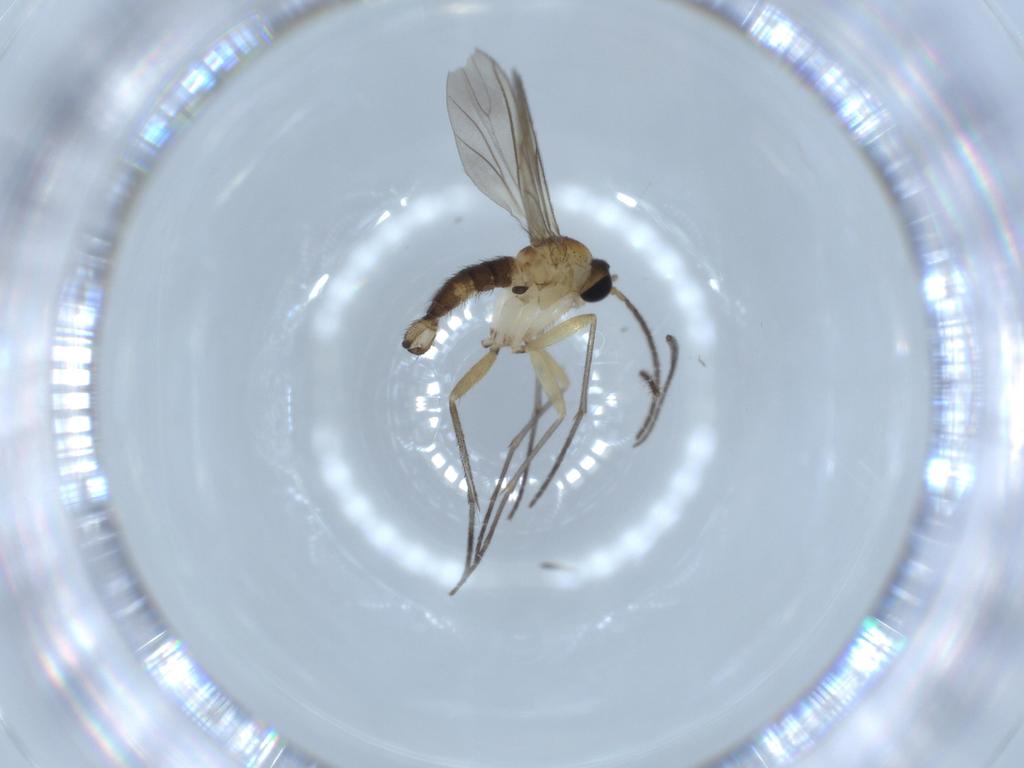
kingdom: Animalia
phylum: Arthropoda
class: Insecta
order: Diptera
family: Sciaridae
